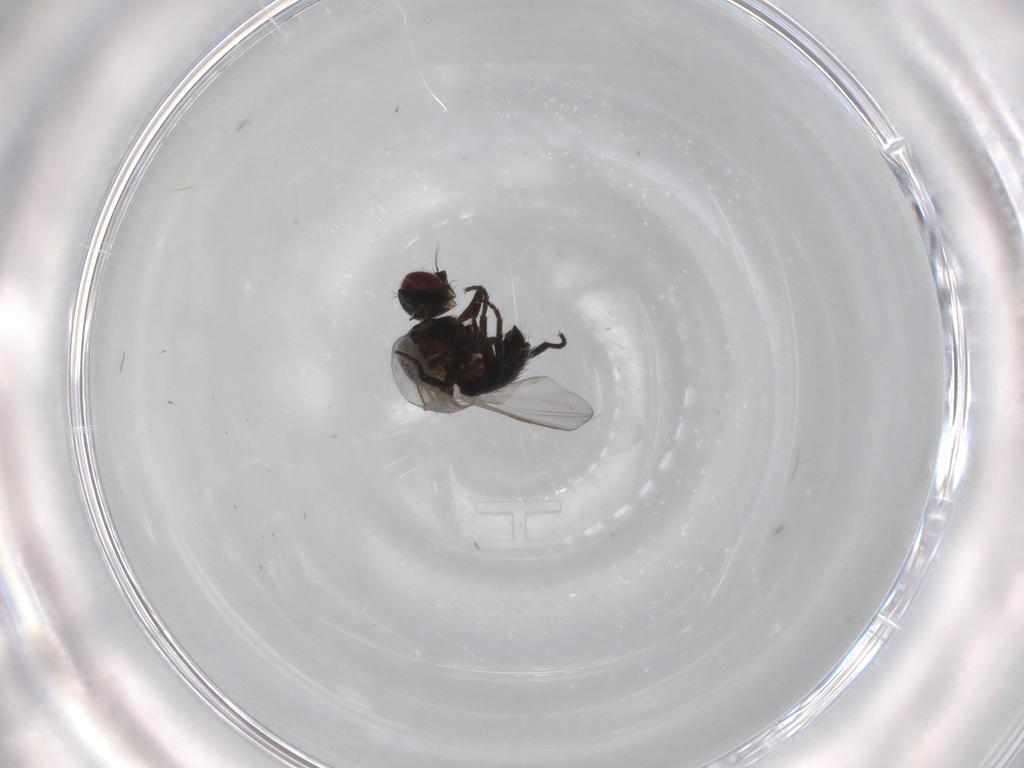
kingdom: Animalia
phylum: Arthropoda
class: Insecta
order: Diptera
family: Agromyzidae
